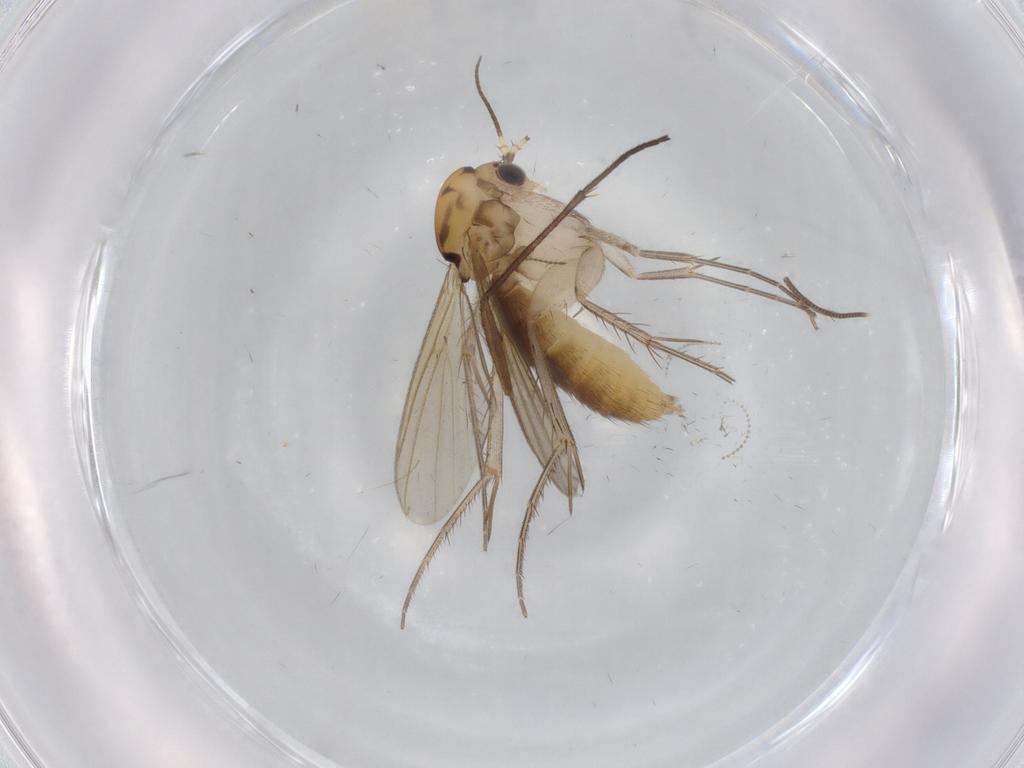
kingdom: Animalia
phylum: Arthropoda
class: Insecta
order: Diptera
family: Mycetophilidae
